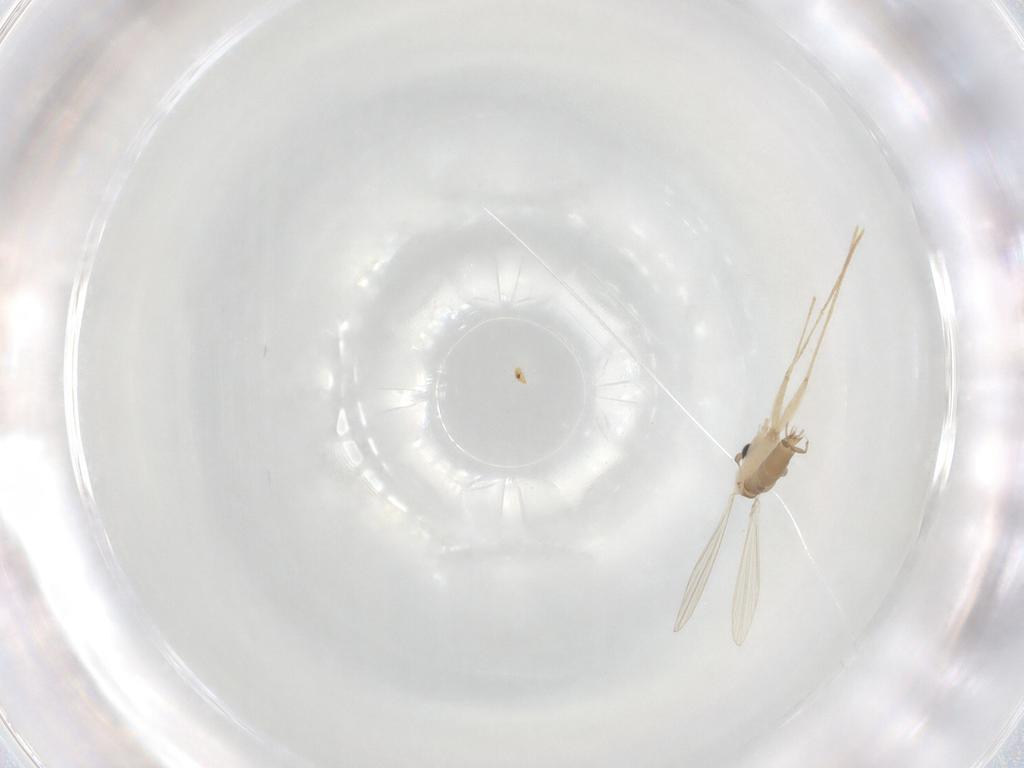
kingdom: Animalia
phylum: Arthropoda
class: Insecta
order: Diptera
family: Psychodidae
